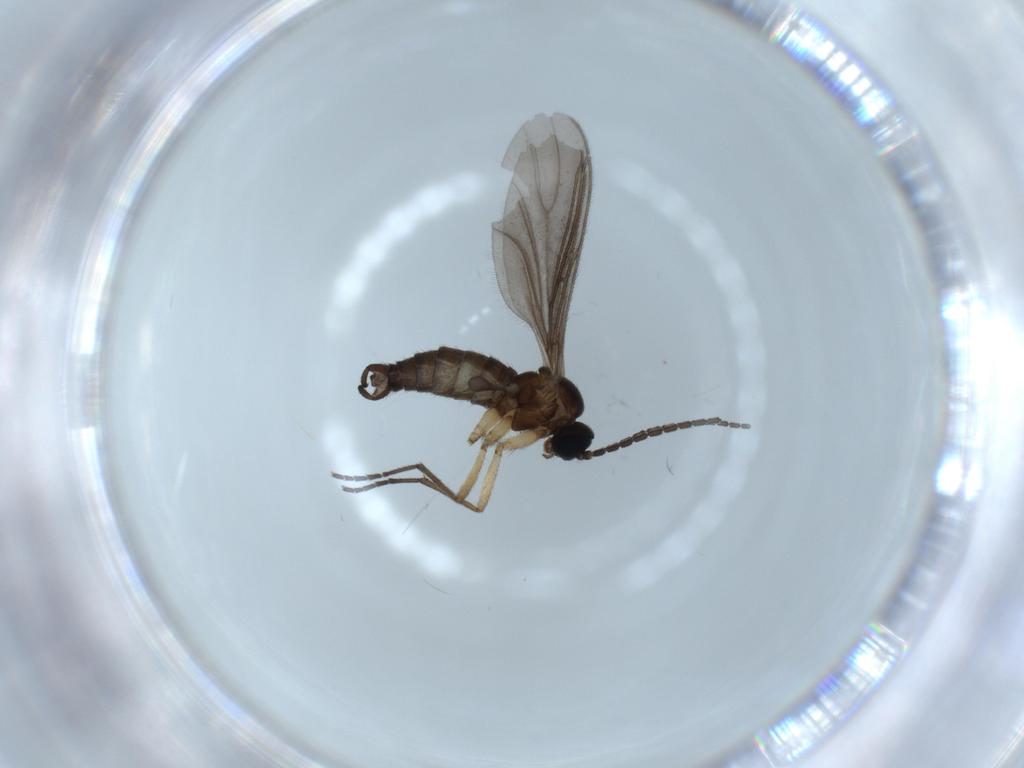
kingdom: Animalia
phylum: Arthropoda
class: Insecta
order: Diptera
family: Sciaridae
